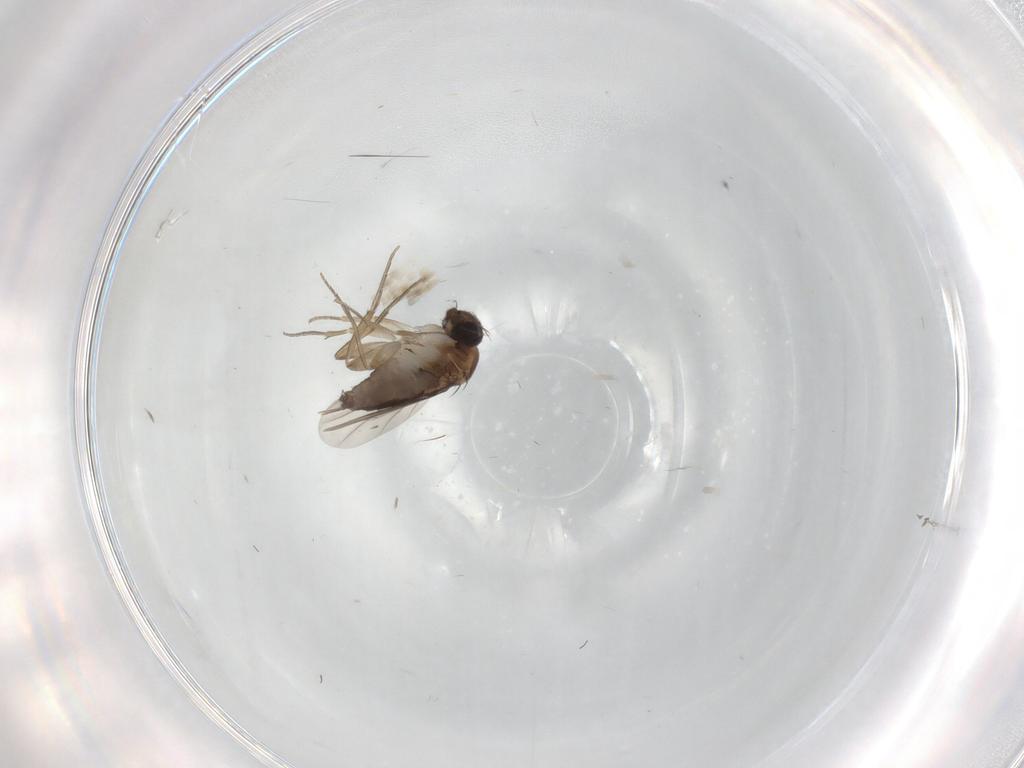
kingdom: Animalia
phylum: Arthropoda
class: Insecta
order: Diptera
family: Phoridae
